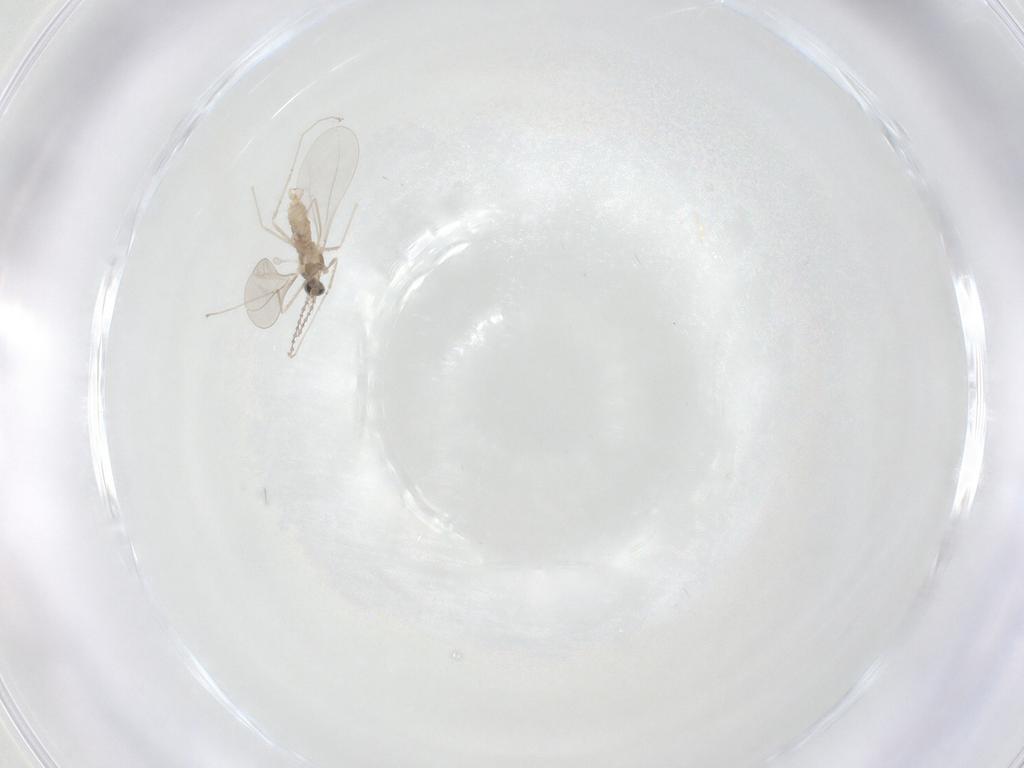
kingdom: Animalia
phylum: Arthropoda
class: Insecta
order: Diptera
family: Cecidomyiidae
